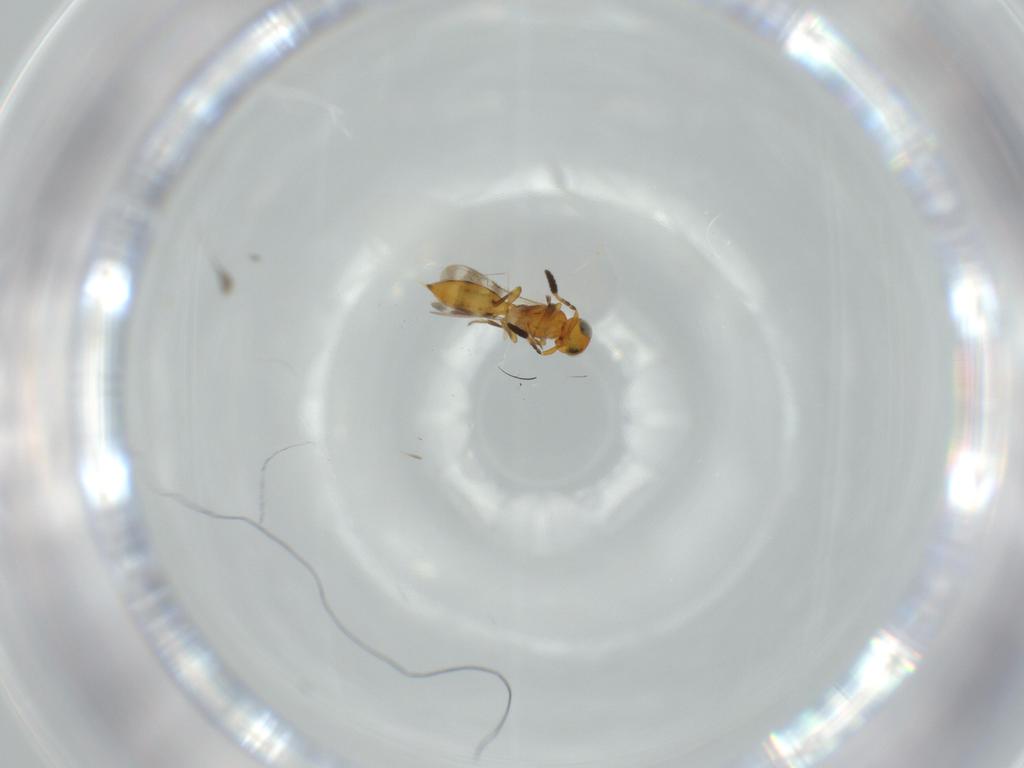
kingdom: Animalia
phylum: Arthropoda
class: Insecta
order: Hymenoptera
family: Scelionidae
